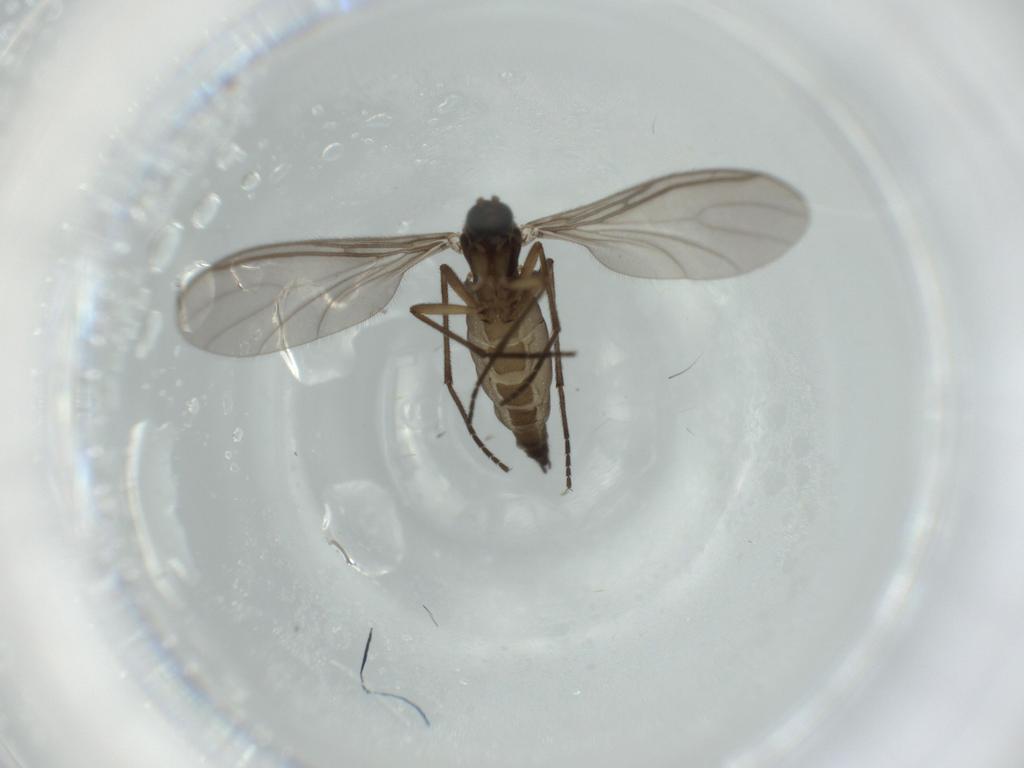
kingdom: Animalia
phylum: Arthropoda
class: Insecta
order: Diptera
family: Sciaridae
